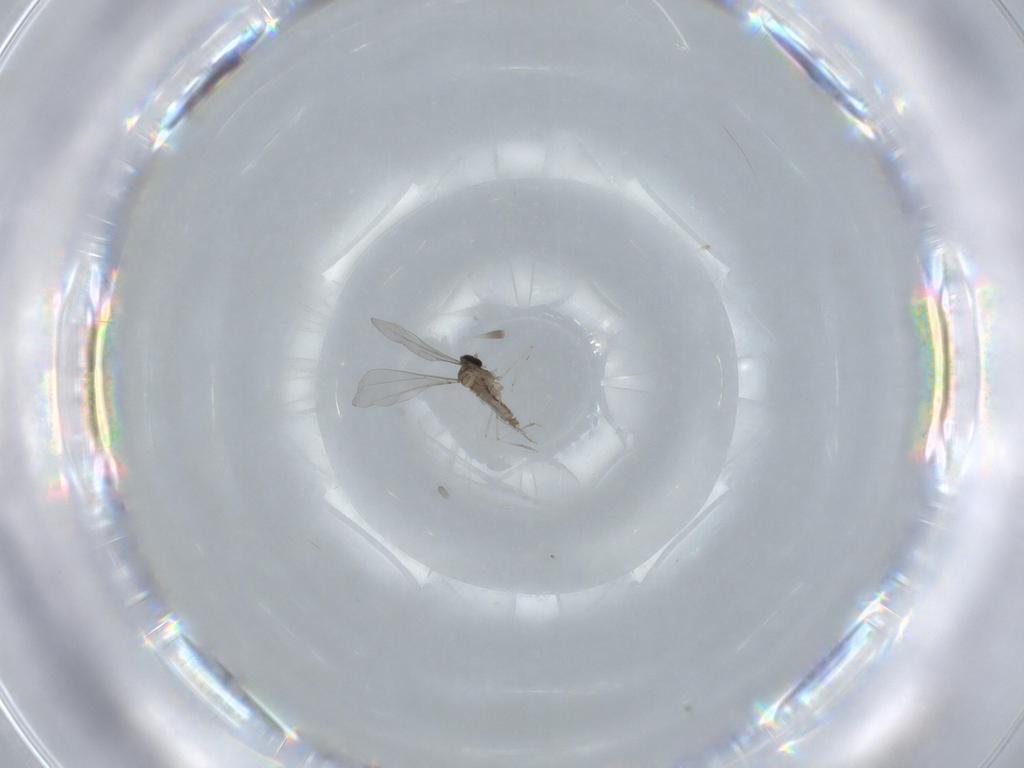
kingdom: Animalia
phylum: Arthropoda
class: Insecta
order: Diptera
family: Cecidomyiidae
